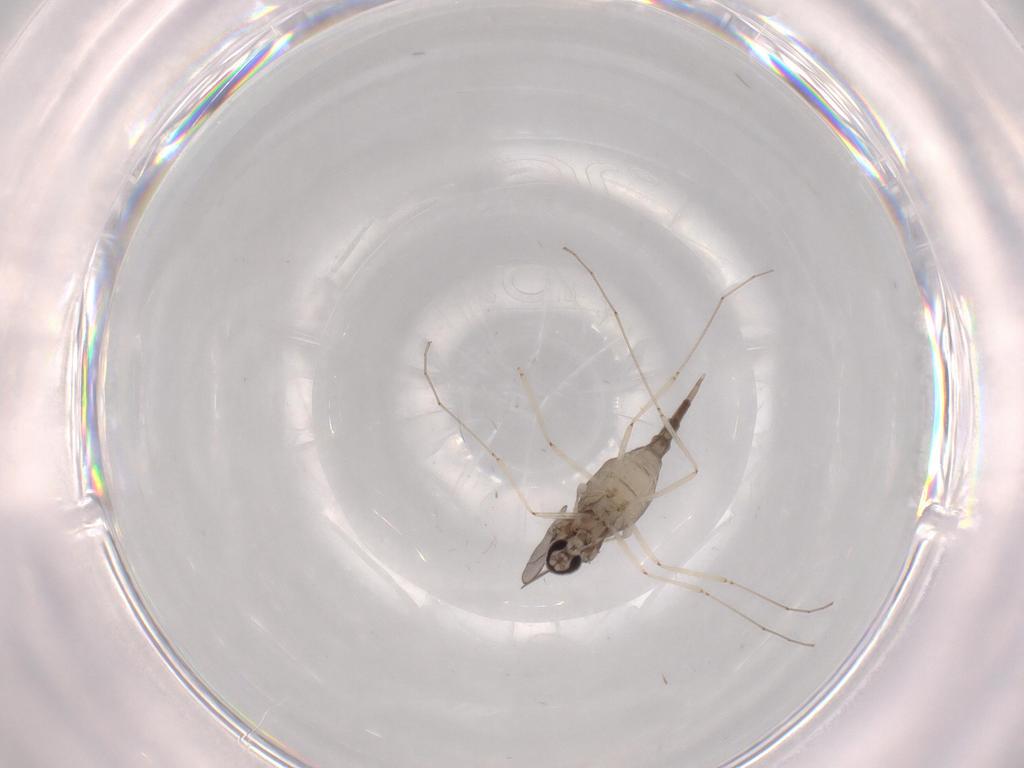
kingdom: Animalia
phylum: Arthropoda
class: Insecta
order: Diptera
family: Cecidomyiidae
